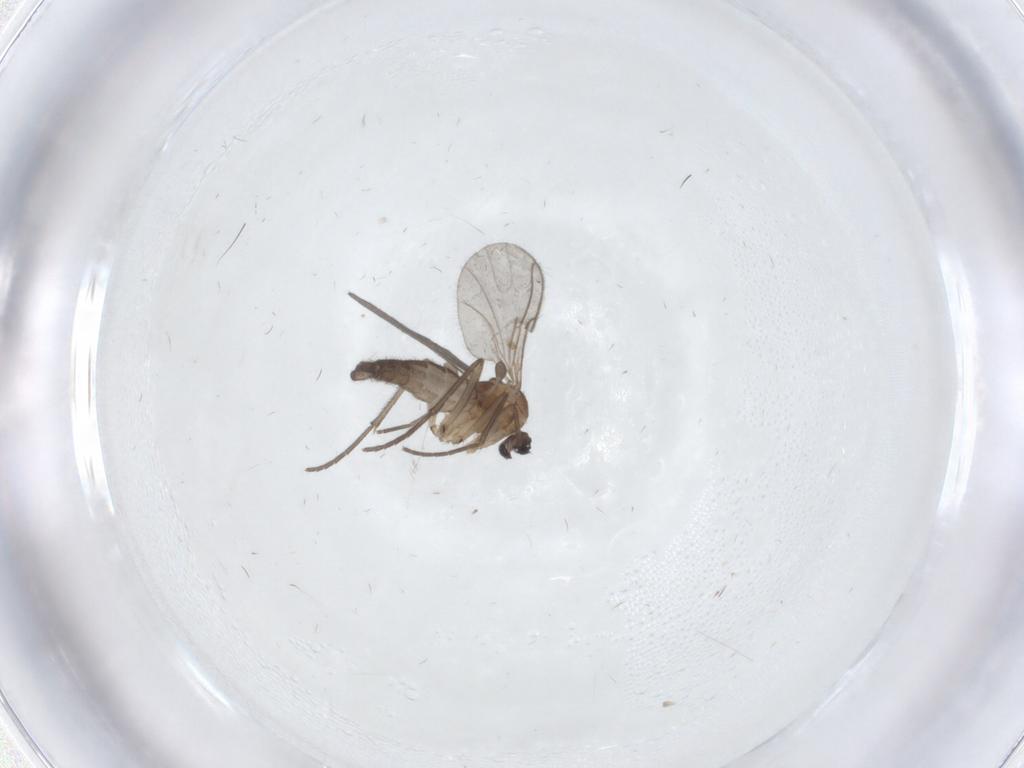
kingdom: Animalia
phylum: Arthropoda
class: Insecta
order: Diptera
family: Sciaridae
